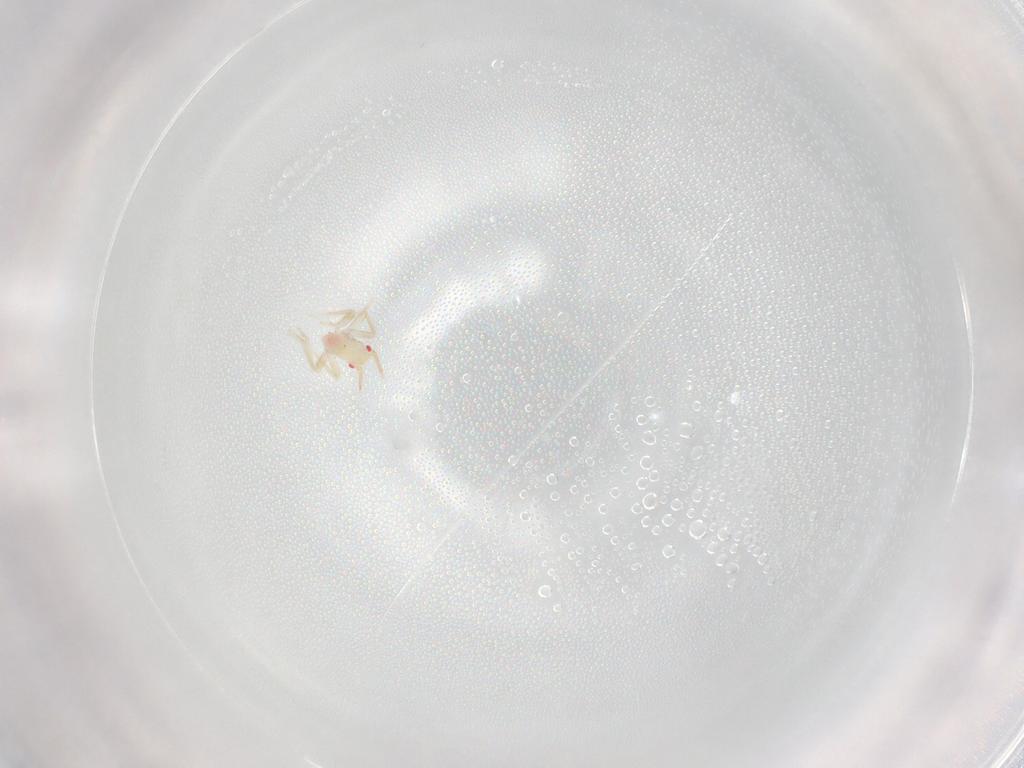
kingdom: Animalia
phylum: Arthropoda
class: Insecta
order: Hemiptera
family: Miridae
